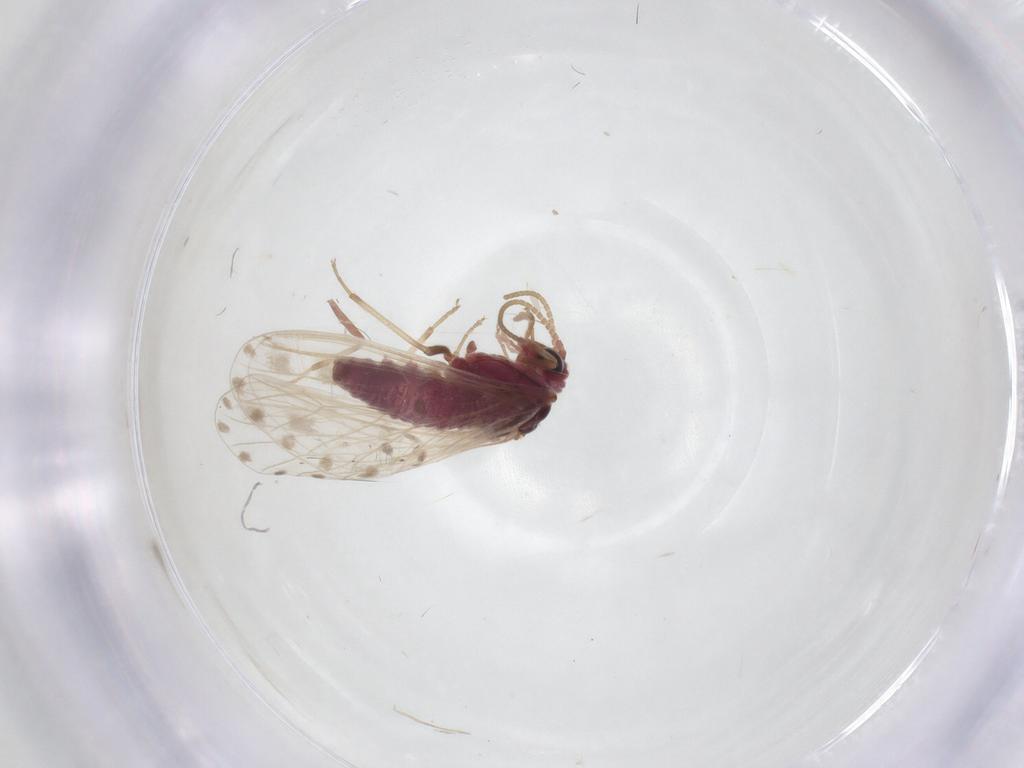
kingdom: Animalia
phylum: Arthropoda
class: Insecta
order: Neuroptera
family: Coniopterygidae
